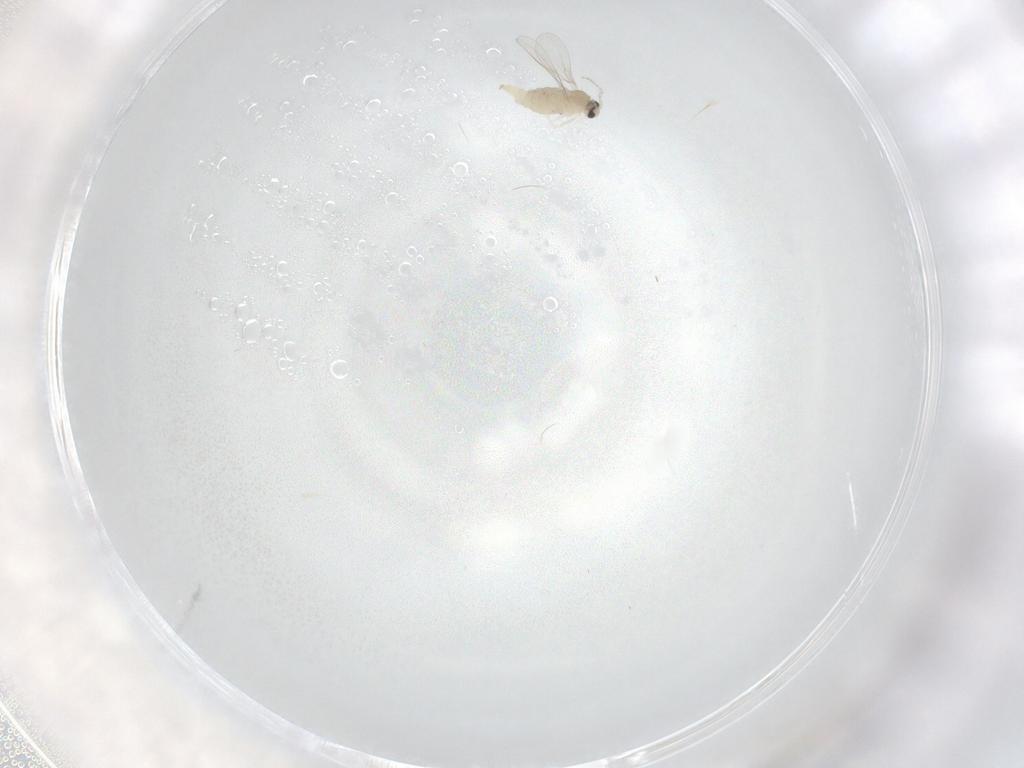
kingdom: Animalia
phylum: Arthropoda
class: Insecta
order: Diptera
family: Cecidomyiidae
